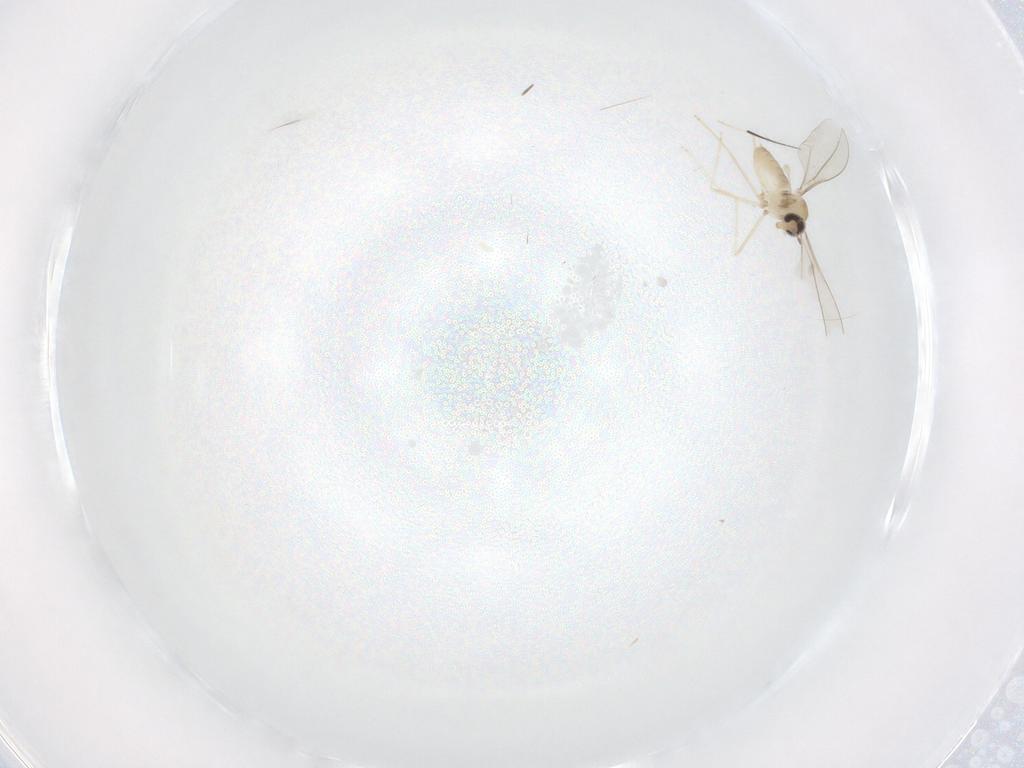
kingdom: Animalia
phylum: Arthropoda
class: Insecta
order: Diptera
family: Cecidomyiidae
